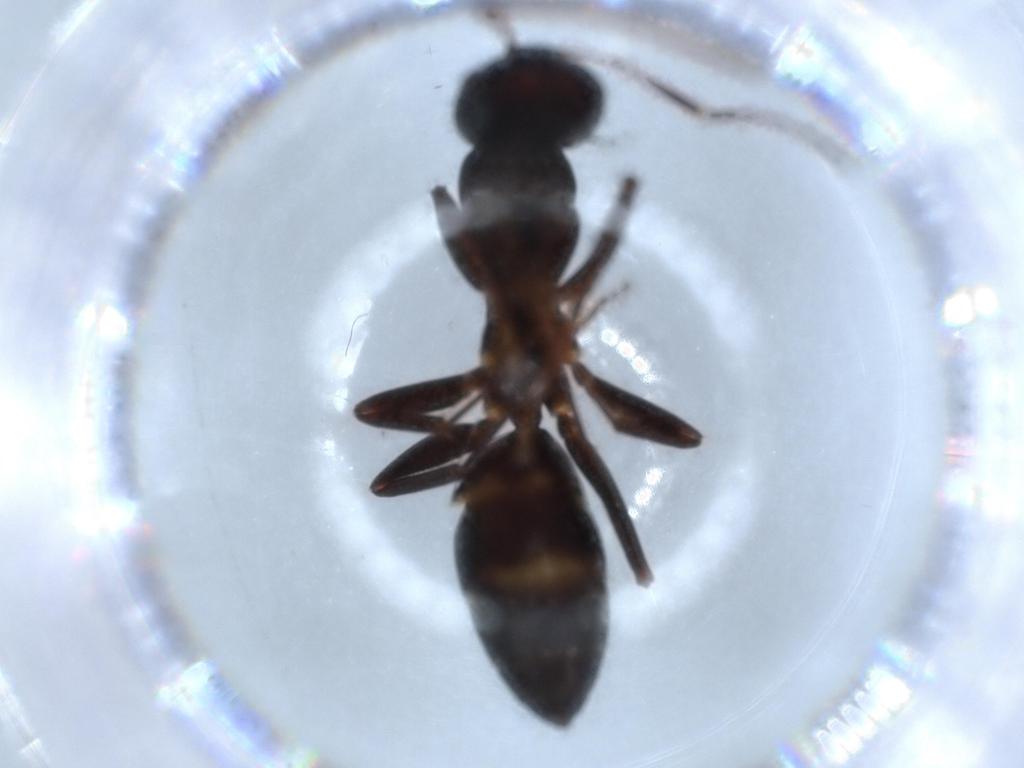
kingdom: Animalia
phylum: Arthropoda
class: Insecta
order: Hymenoptera
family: Formicidae
